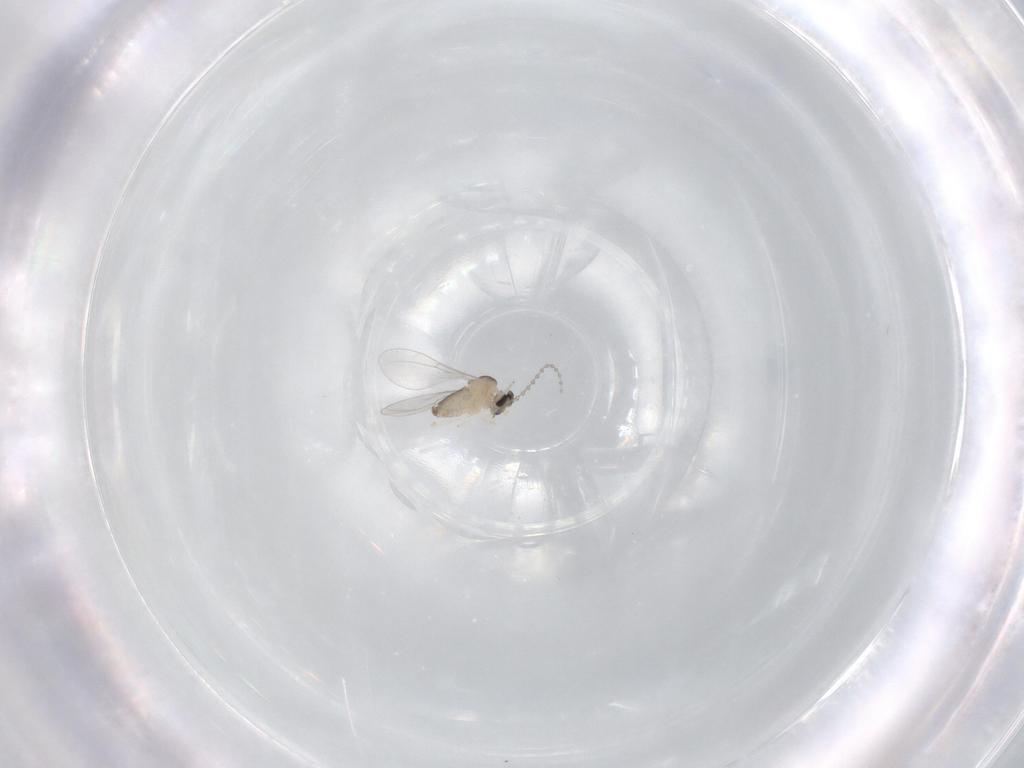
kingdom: Animalia
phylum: Arthropoda
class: Insecta
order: Diptera
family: Cecidomyiidae
